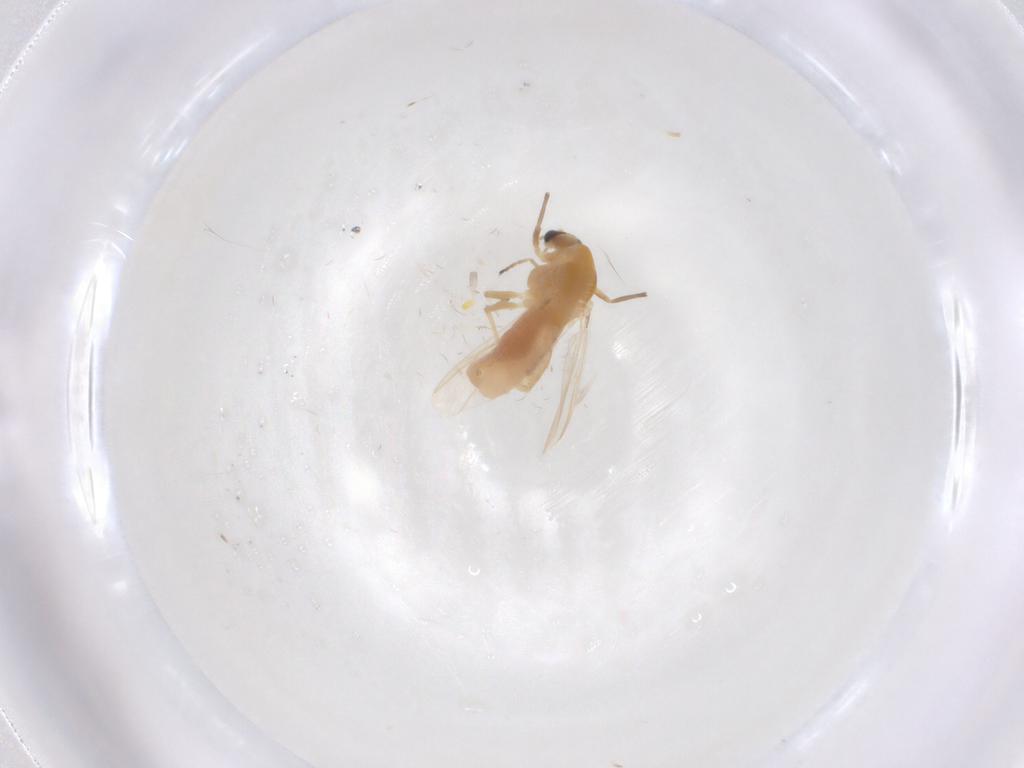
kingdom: Animalia
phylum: Arthropoda
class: Insecta
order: Diptera
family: Chironomidae
